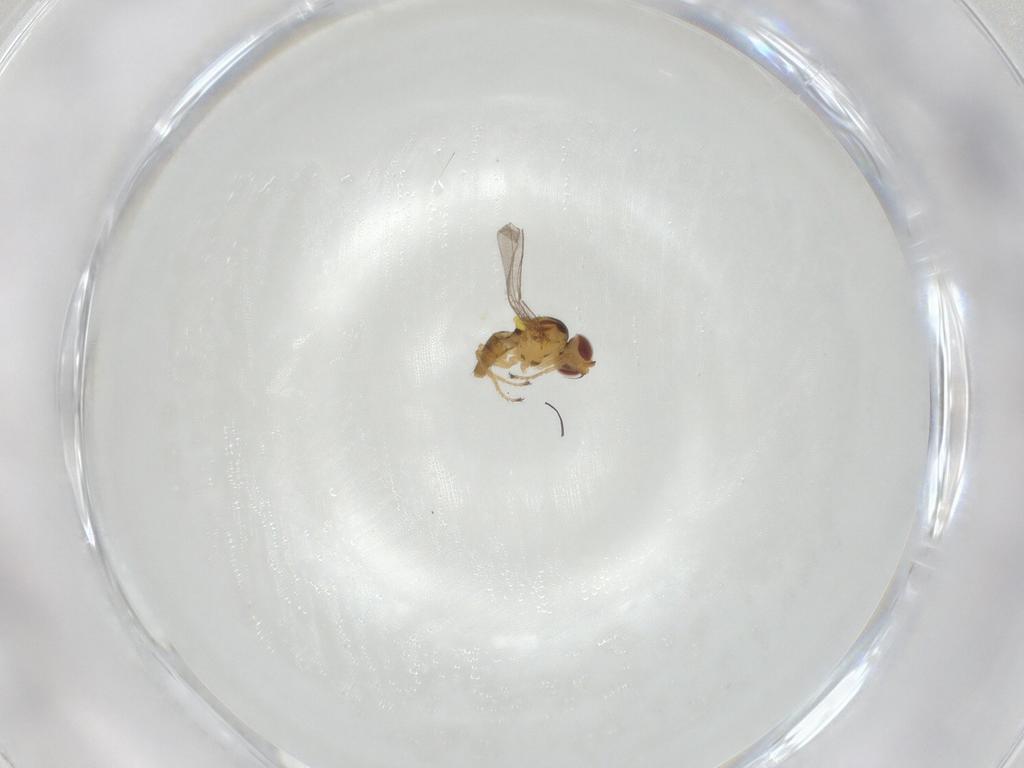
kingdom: Animalia
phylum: Arthropoda
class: Insecta
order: Diptera
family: Chloropidae
